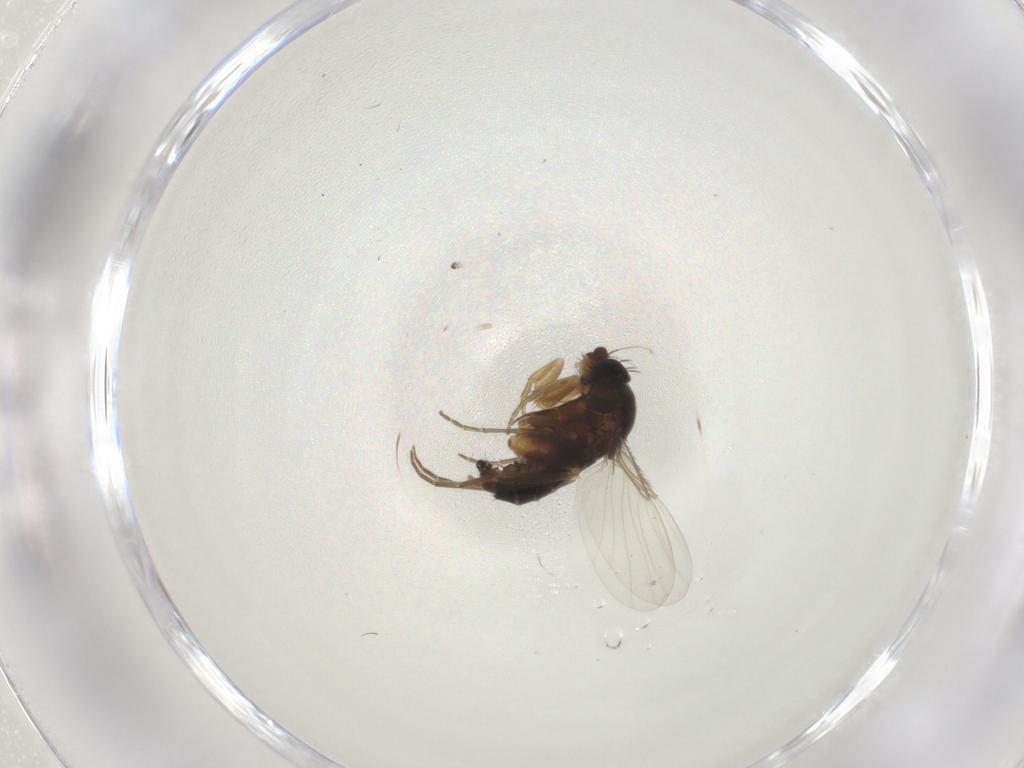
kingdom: Animalia
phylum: Arthropoda
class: Insecta
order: Diptera
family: Phoridae
